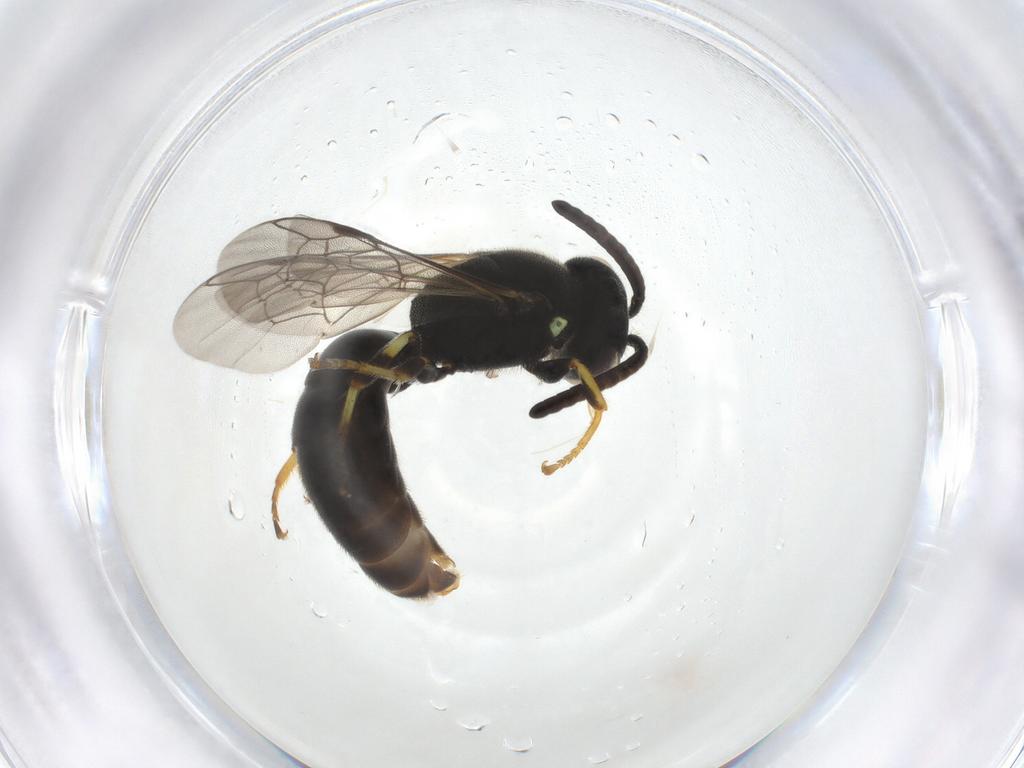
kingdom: Animalia
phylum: Arthropoda
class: Insecta
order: Hymenoptera
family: Colletidae
